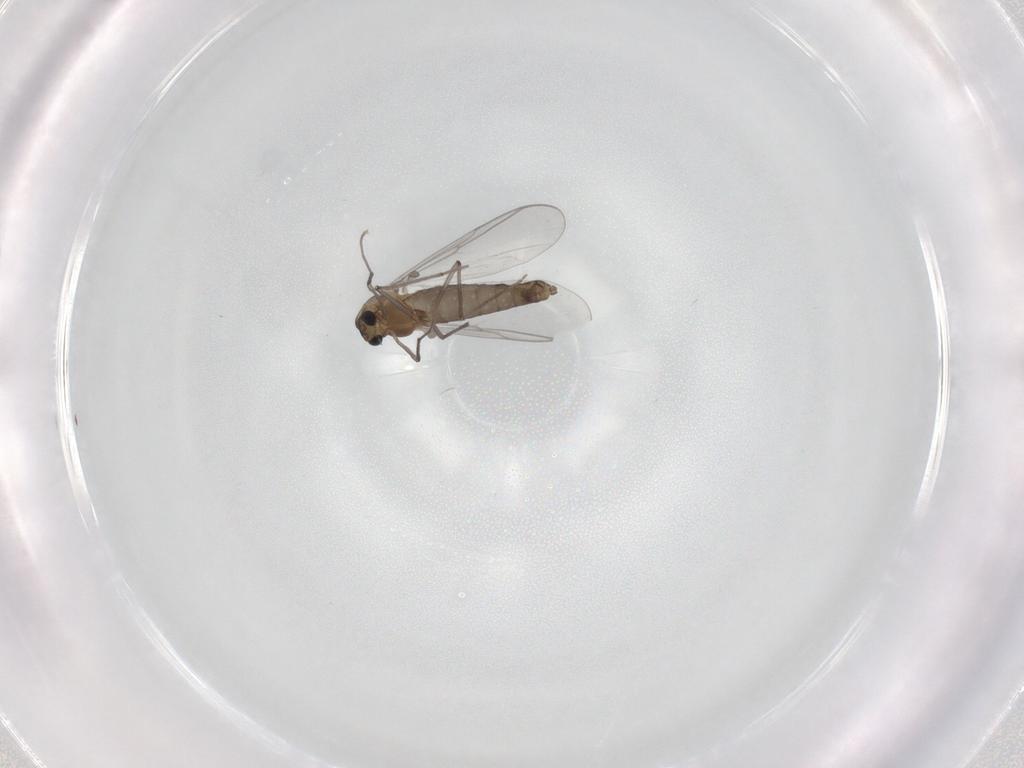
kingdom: Animalia
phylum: Arthropoda
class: Insecta
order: Diptera
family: Chironomidae
